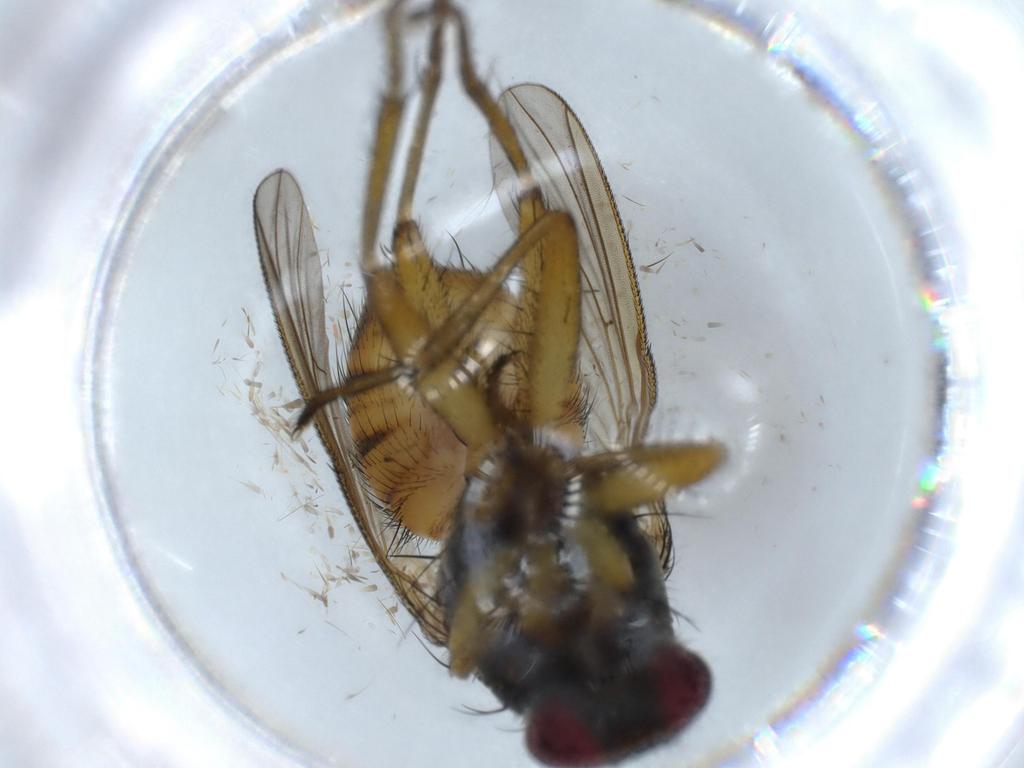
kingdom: Animalia
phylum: Arthropoda
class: Insecta
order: Diptera
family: Muscidae
